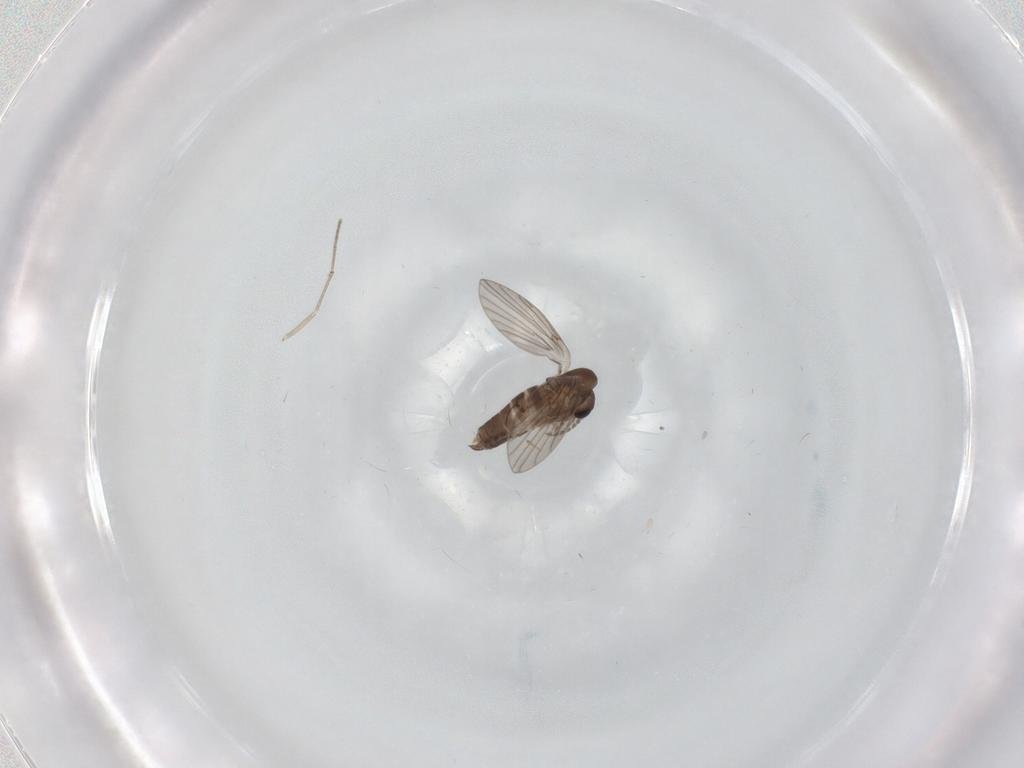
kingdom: Animalia
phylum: Arthropoda
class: Insecta
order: Diptera
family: Psychodidae
